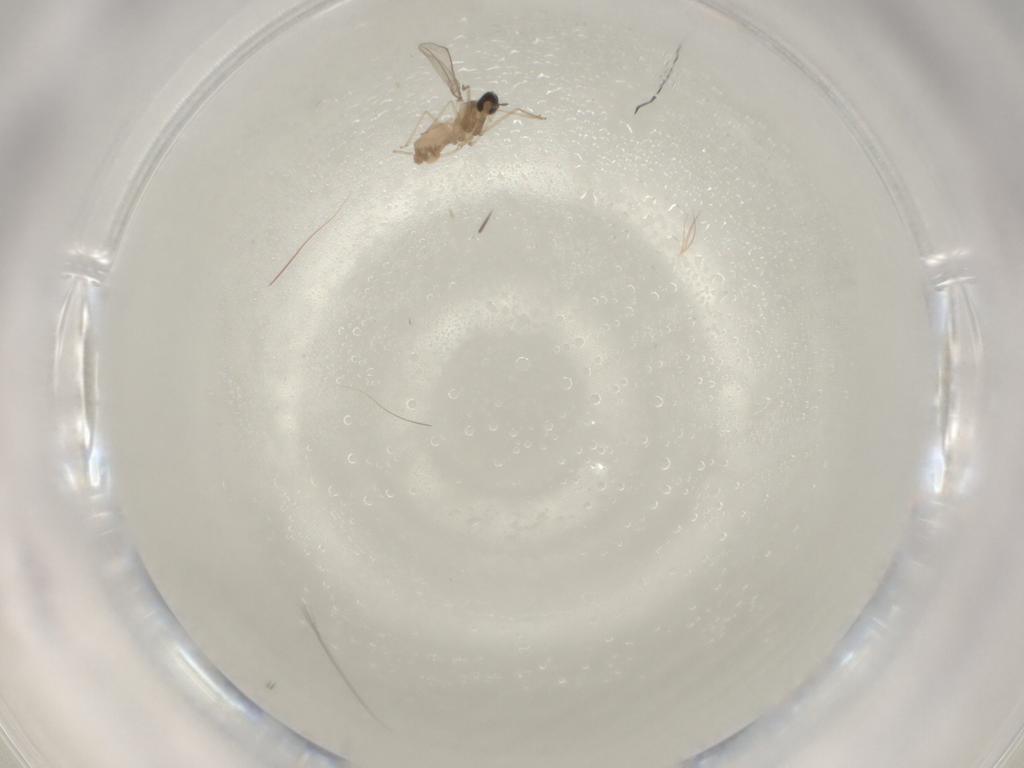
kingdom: Animalia
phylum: Arthropoda
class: Insecta
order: Diptera
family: Cecidomyiidae
